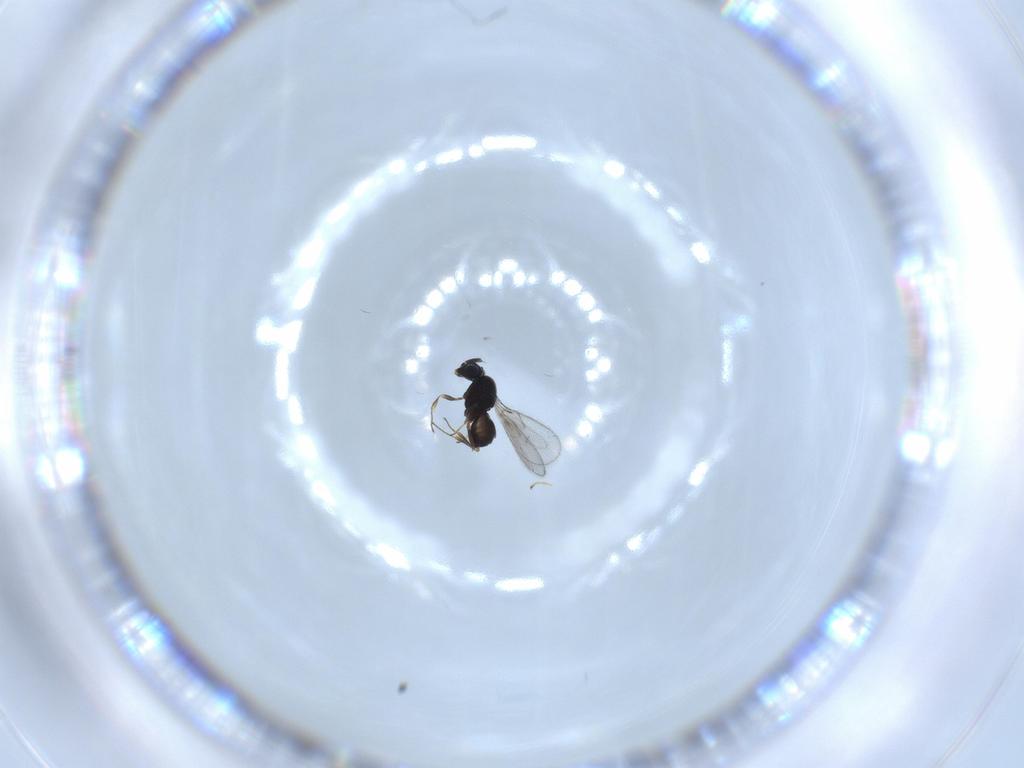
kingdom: Animalia
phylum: Arthropoda
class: Insecta
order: Hymenoptera
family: Scelionidae
